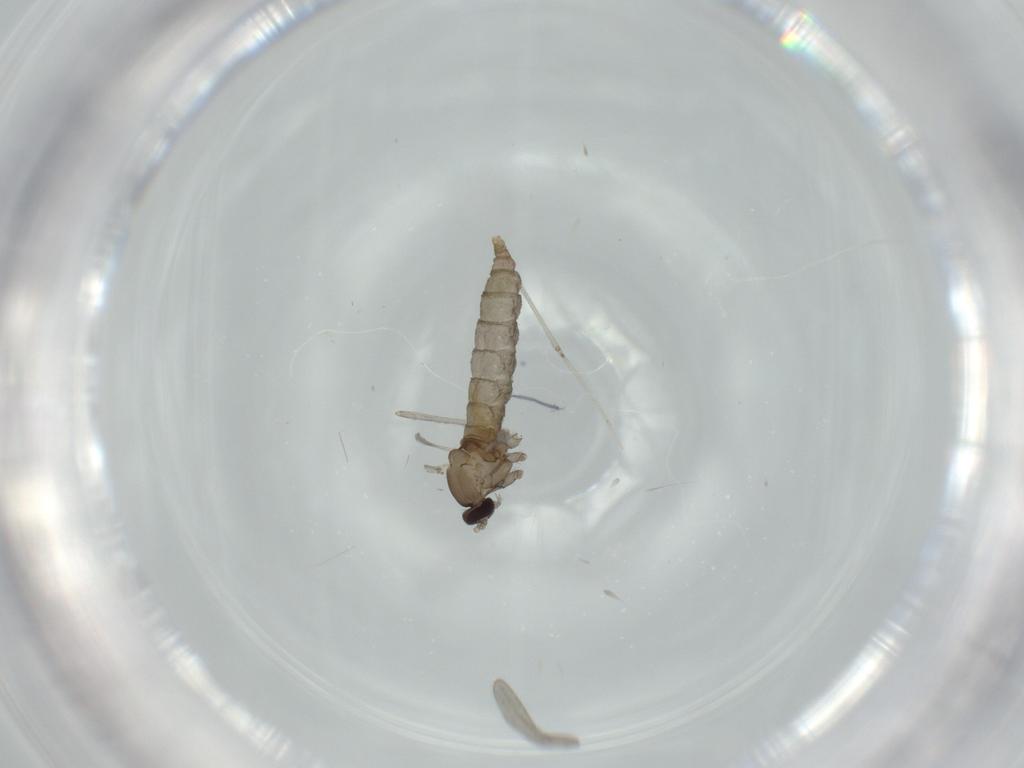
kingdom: Animalia
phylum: Arthropoda
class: Insecta
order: Diptera
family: Cecidomyiidae
